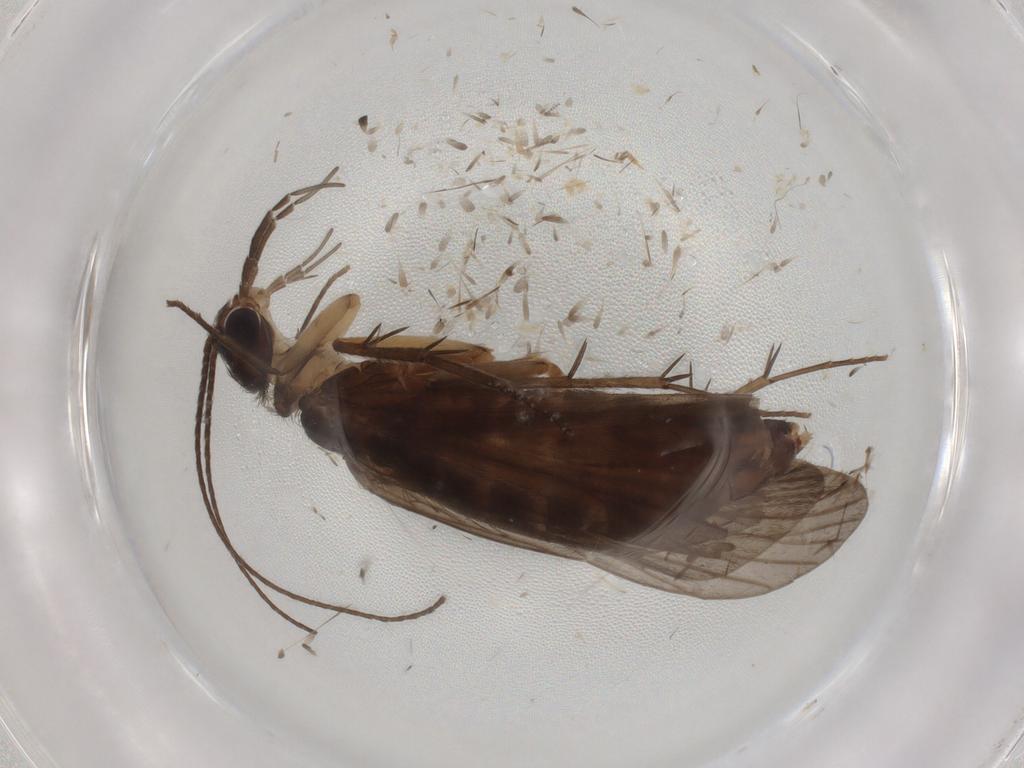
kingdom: Animalia
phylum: Arthropoda
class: Insecta
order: Trichoptera
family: Philopotamidae
